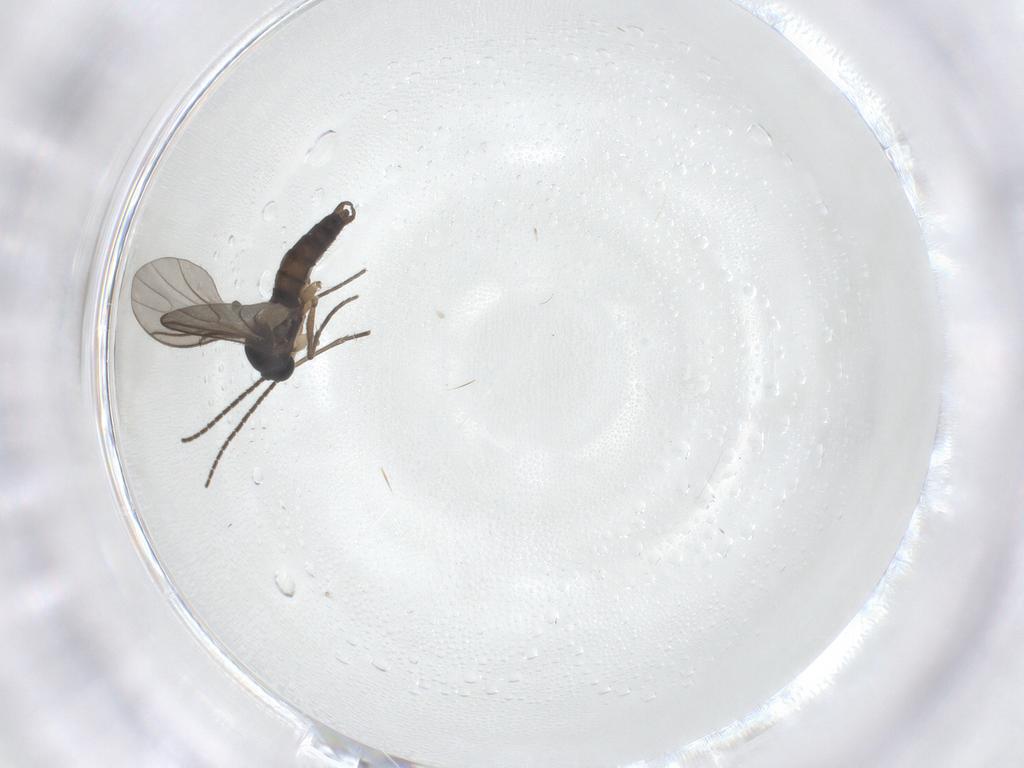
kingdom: Animalia
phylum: Arthropoda
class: Insecta
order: Diptera
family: Sciaridae
